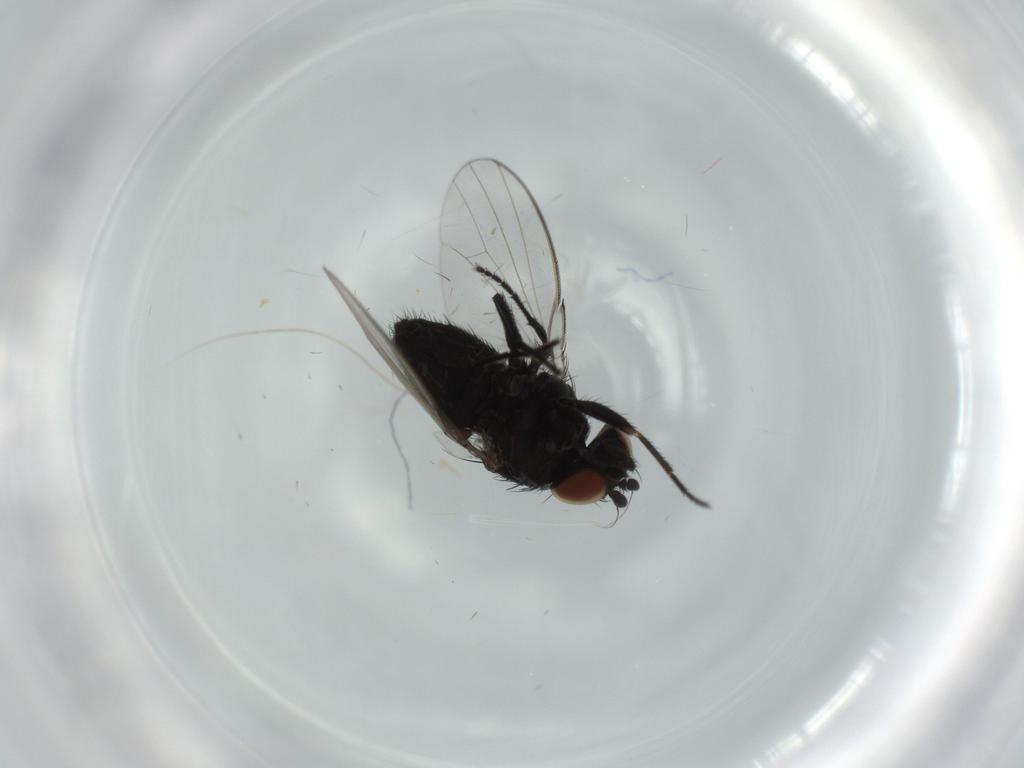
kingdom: Animalia
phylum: Arthropoda
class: Insecta
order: Diptera
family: Milichiidae
